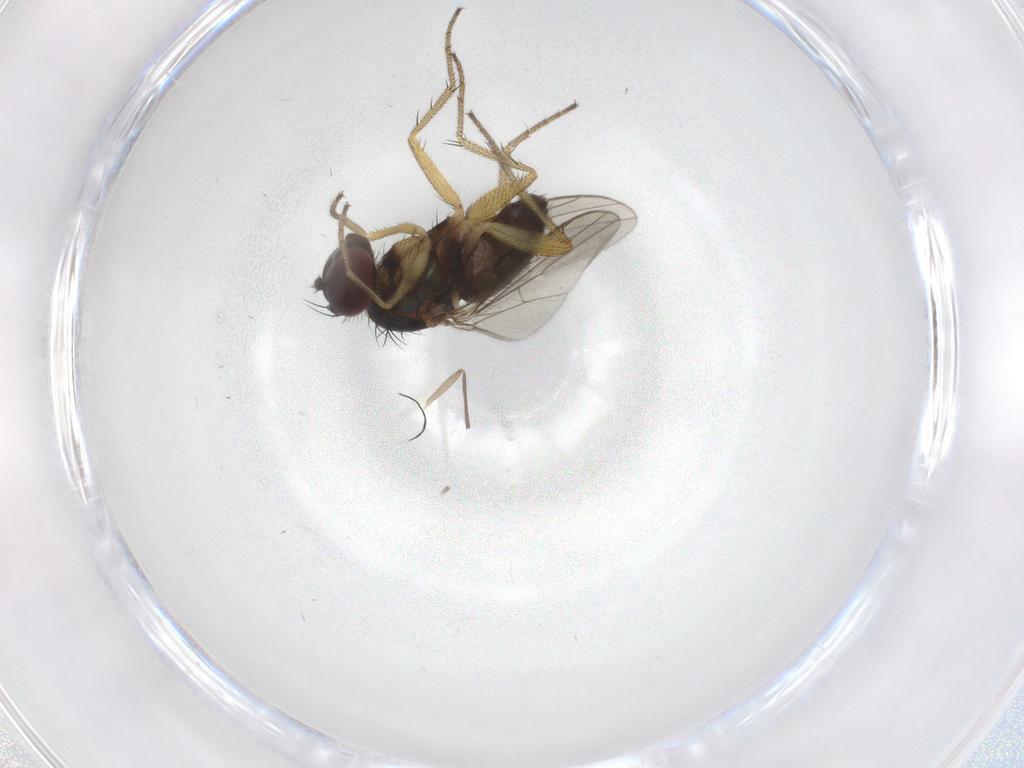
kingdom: Animalia
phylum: Arthropoda
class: Insecta
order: Diptera
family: Chironomidae
